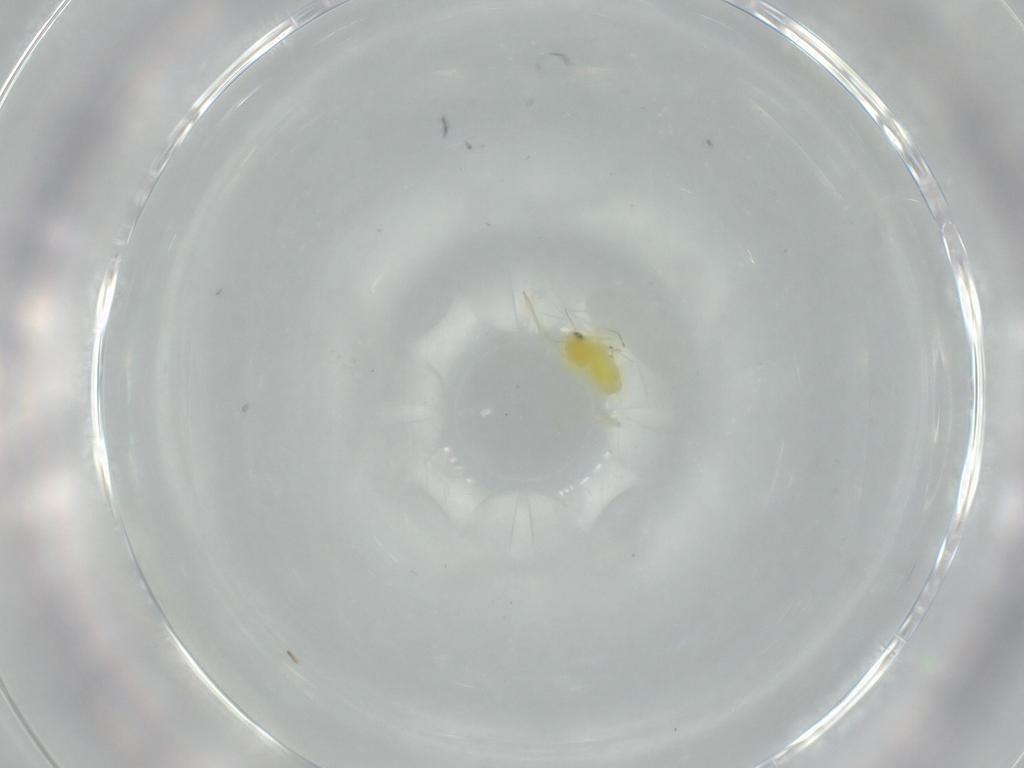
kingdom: Animalia
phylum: Arthropoda
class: Insecta
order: Hemiptera
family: Aleyrodidae
